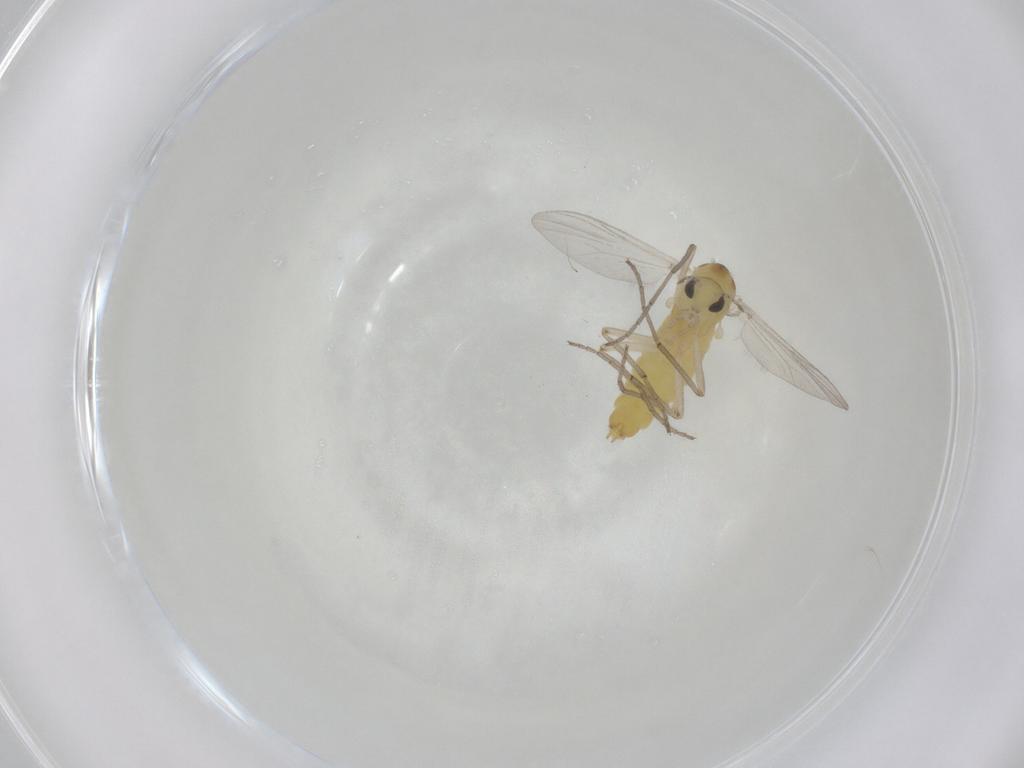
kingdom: Animalia
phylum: Arthropoda
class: Insecta
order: Diptera
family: Chironomidae
